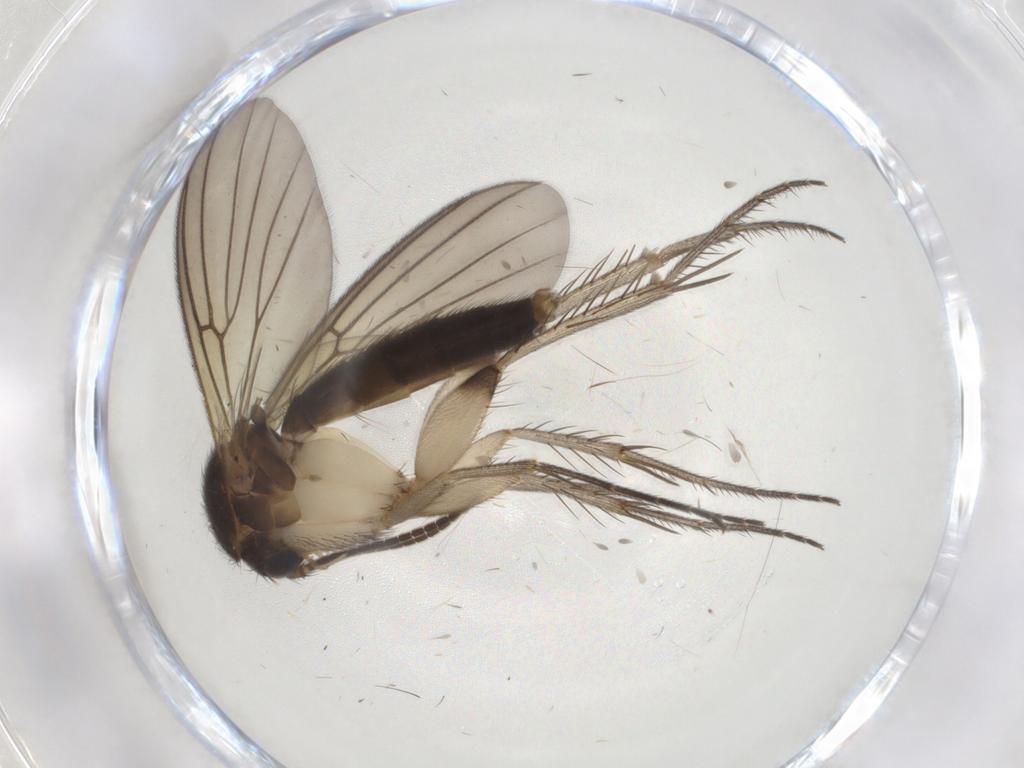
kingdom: Animalia
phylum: Arthropoda
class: Insecta
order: Diptera
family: Mycetophilidae
